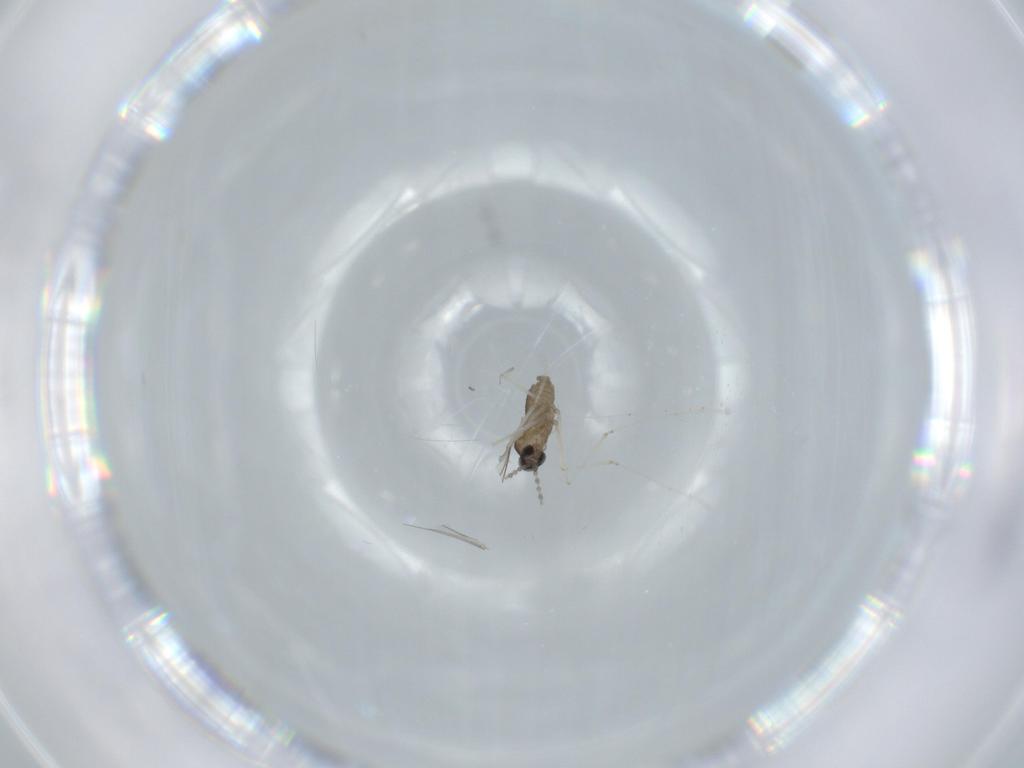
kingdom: Animalia
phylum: Arthropoda
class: Insecta
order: Diptera
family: Cecidomyiidae
